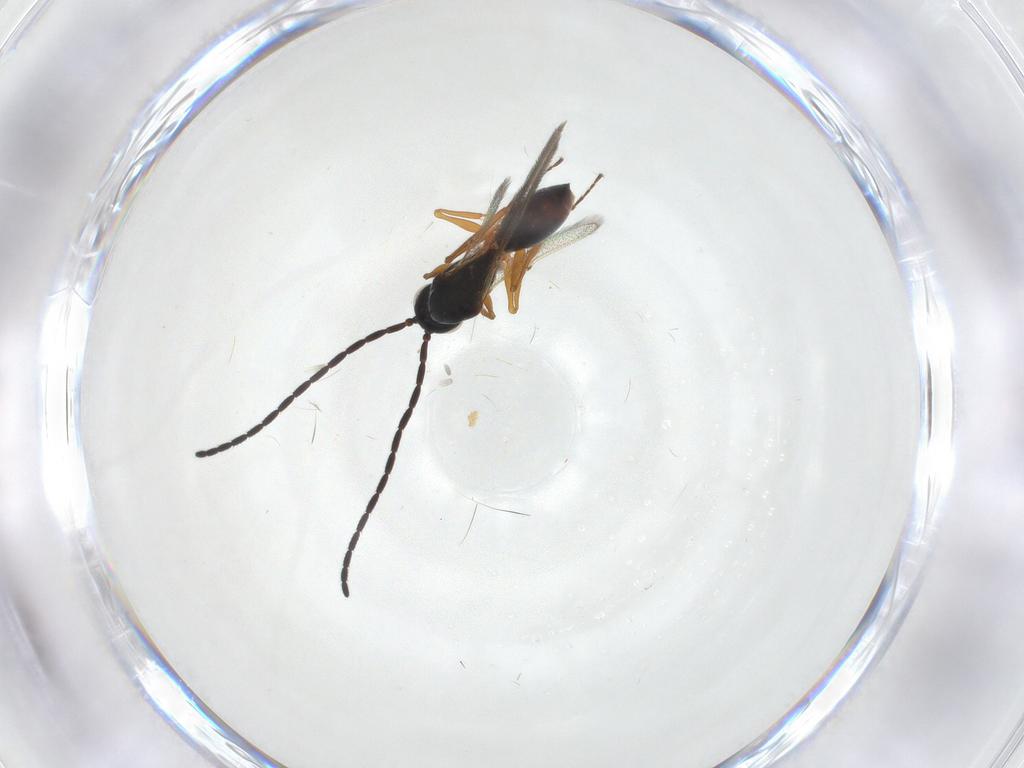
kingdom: Animalia
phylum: Arthropoda
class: Insecta
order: Hymenoptera
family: Figitidae
